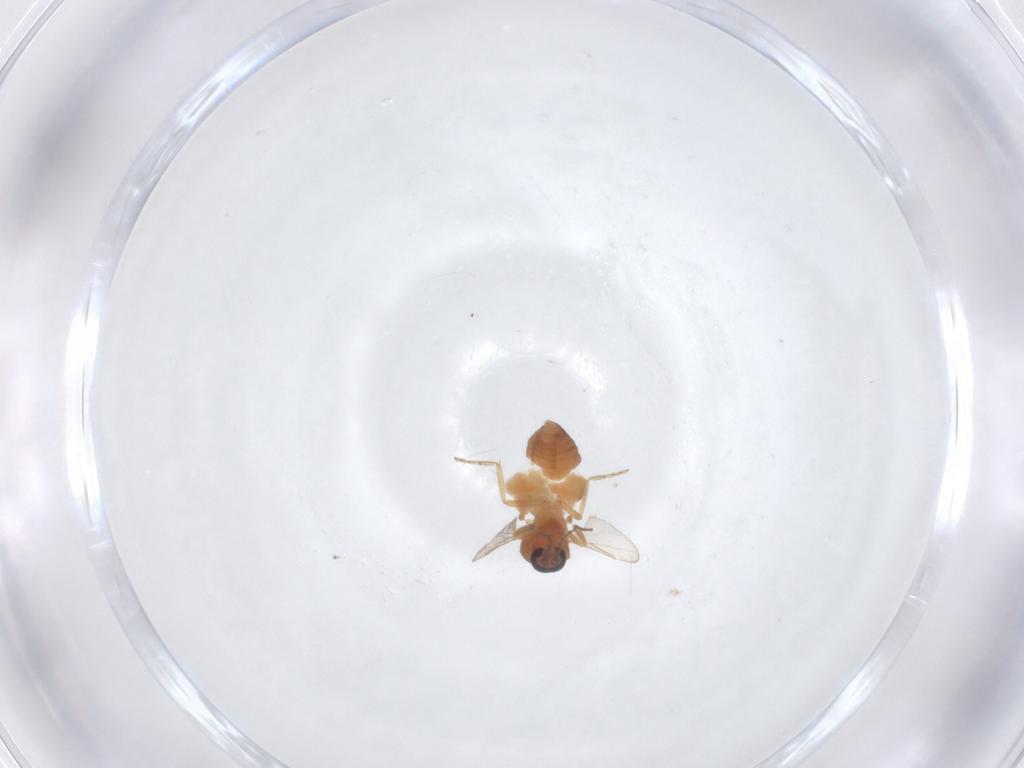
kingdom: Animalia
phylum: Arthropoda
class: Insecta
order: Diptera
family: Ceratopogonidae
